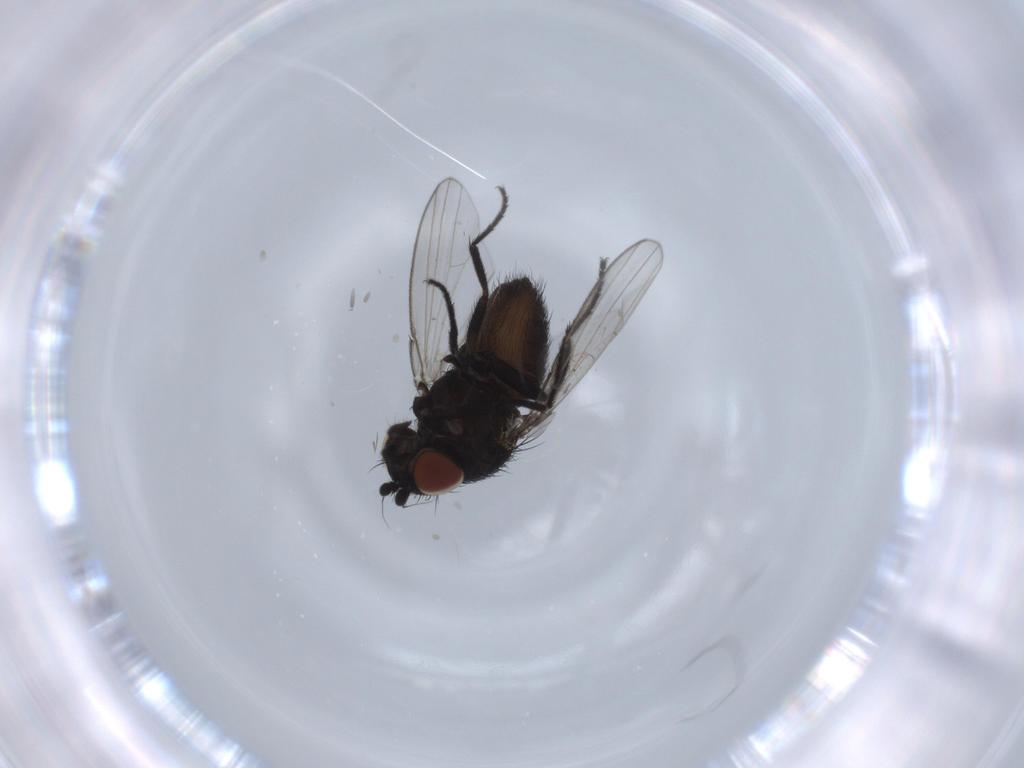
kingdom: Animalia
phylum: Arthropoda
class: Insecta
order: Diptera
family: Milichiidae
